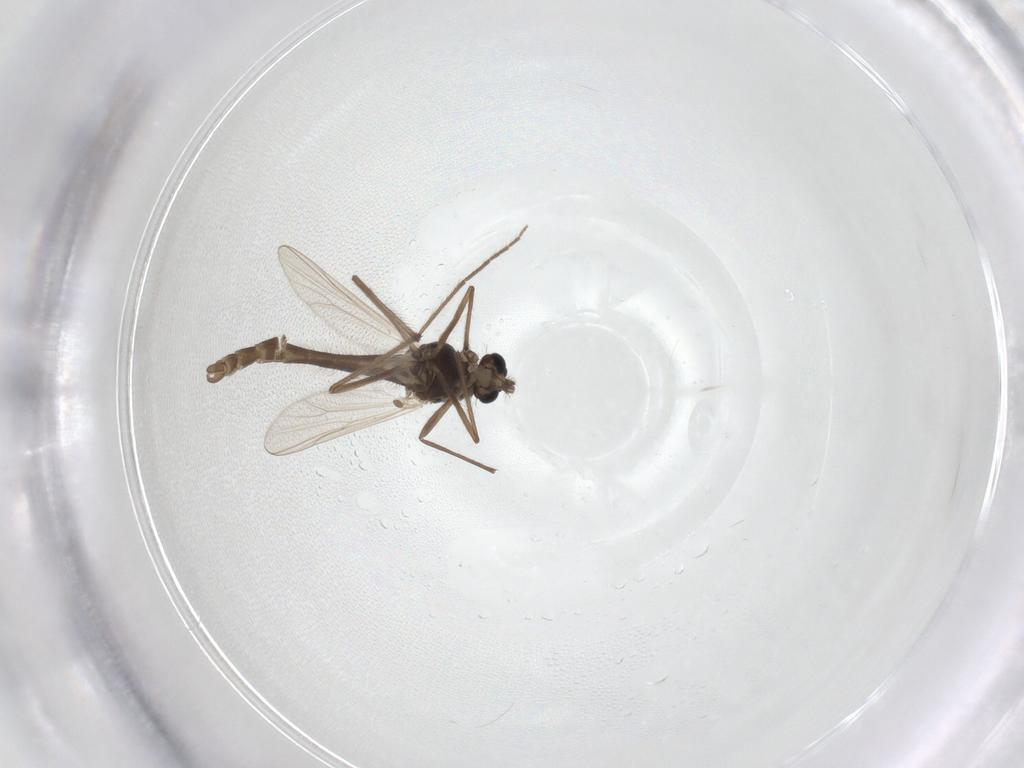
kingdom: Animalia
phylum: Arthropoda
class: Insecta
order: Diptera
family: Chironomidae
